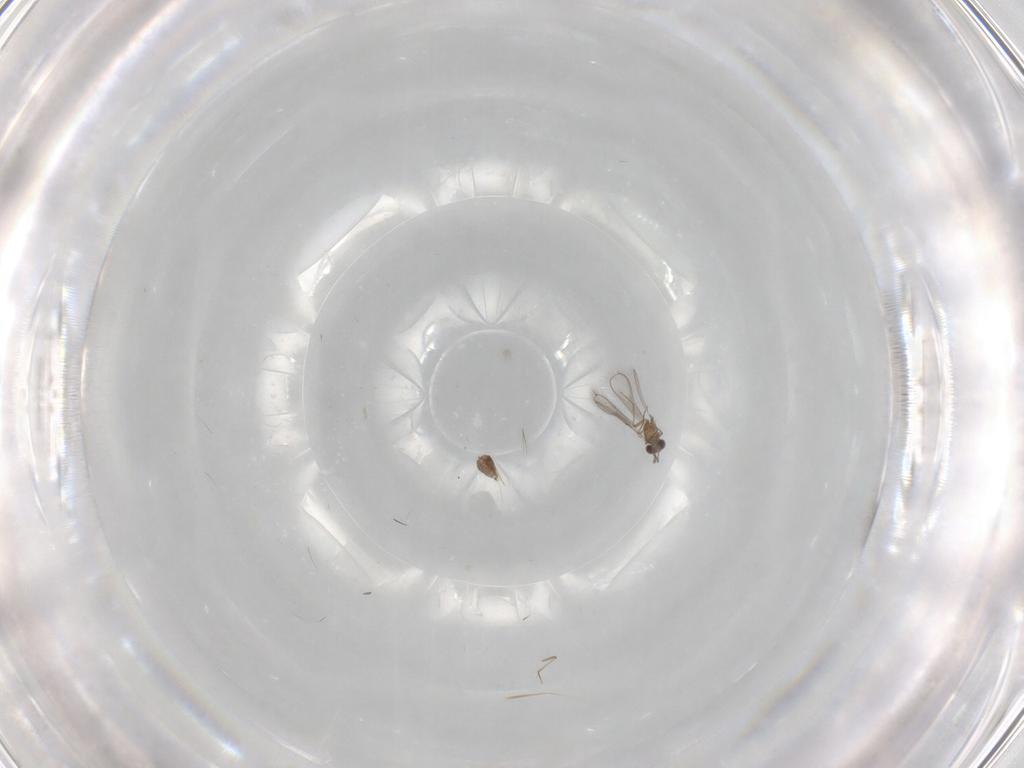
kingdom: Animalia
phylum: Arthropoda
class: Insecta
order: Hymenoptera
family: Mymaridae
